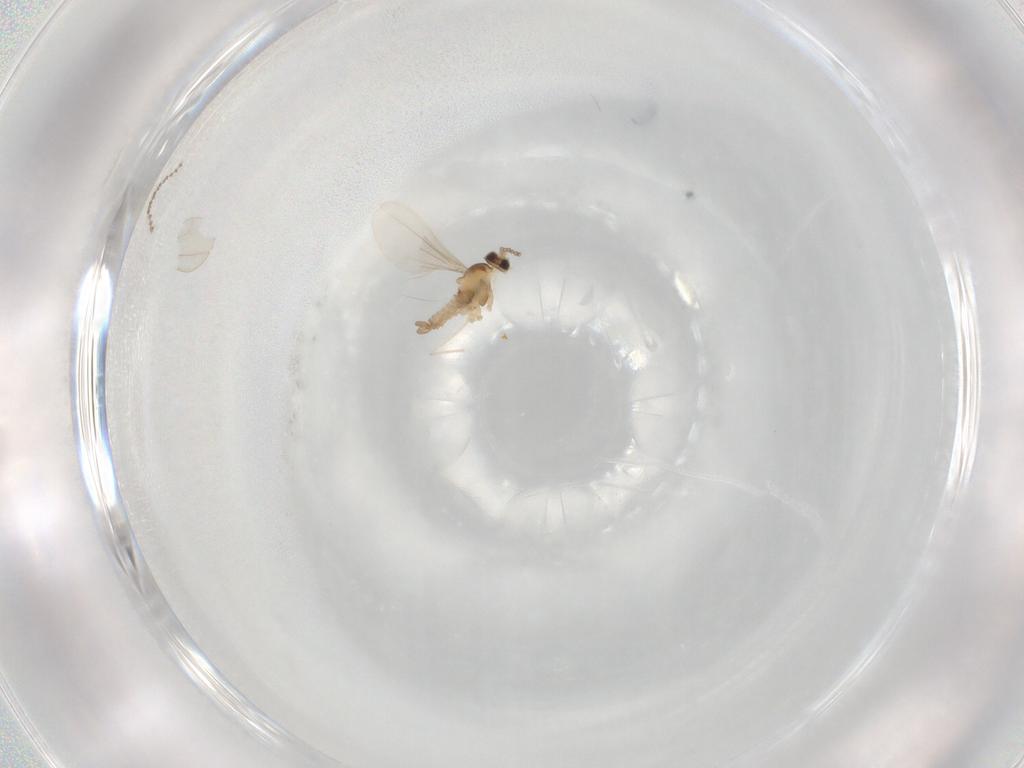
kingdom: Animalia
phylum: Arthropoda
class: Insecta
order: Diptera
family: Cecidomyiidae
